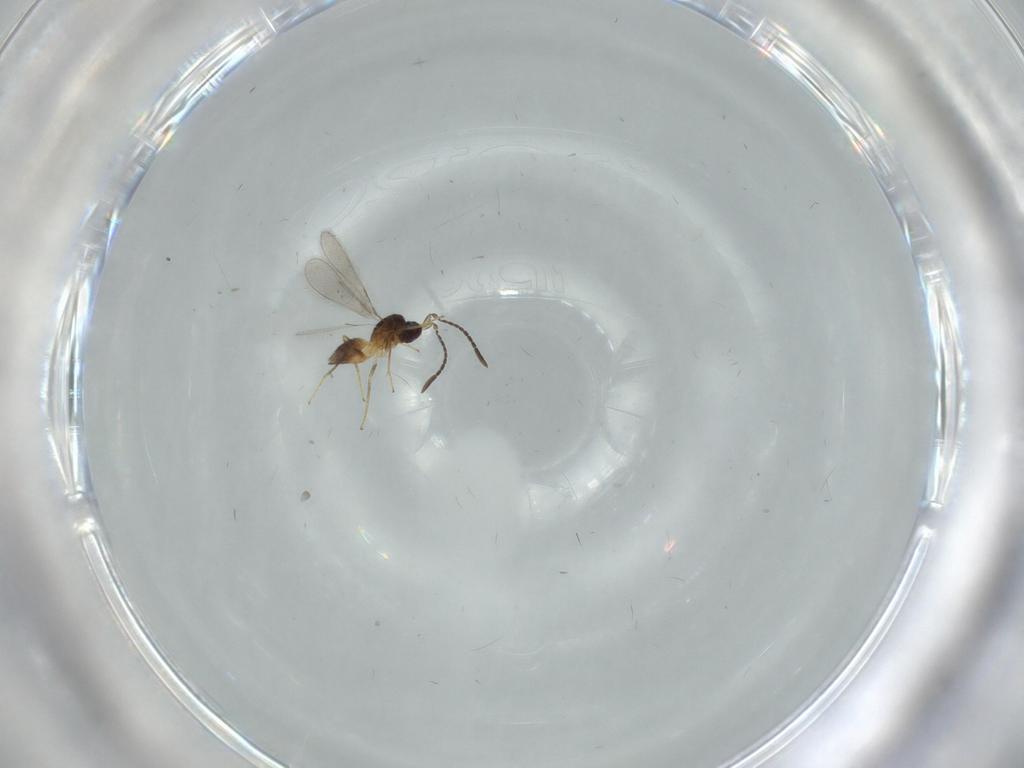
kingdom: Animalia
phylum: Arthropoda
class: Insecta
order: Hymenoptera
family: Mymaridae
